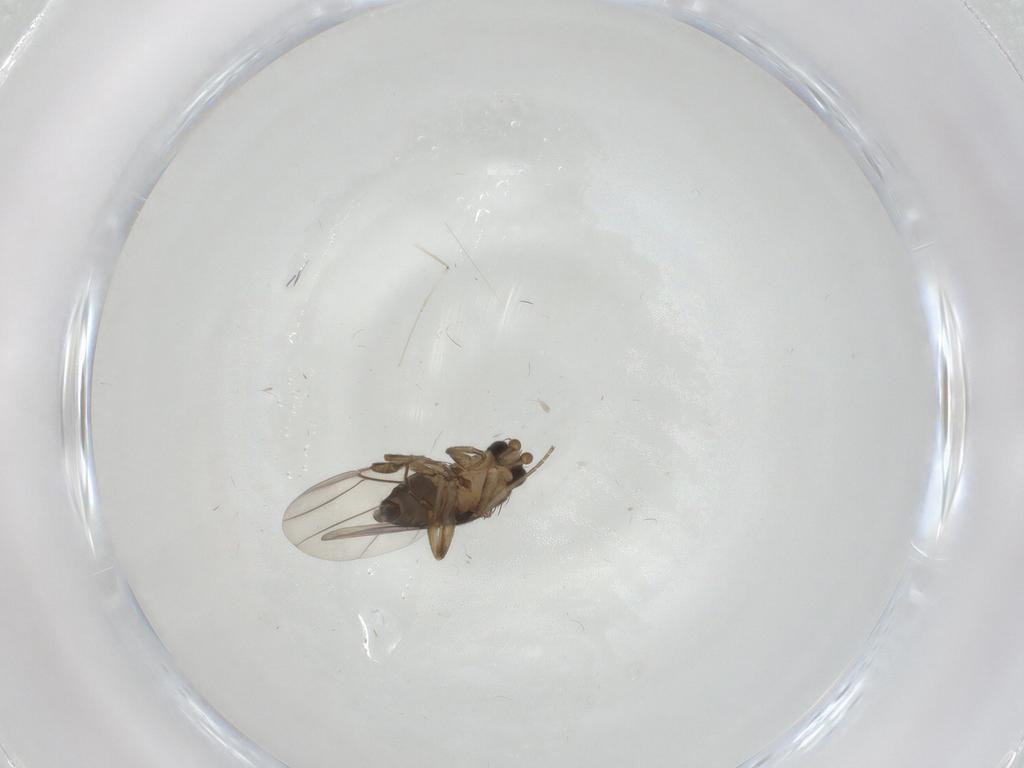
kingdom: Animalia
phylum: Arthropoda
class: Insecta
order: Diptera
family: Phoridae
